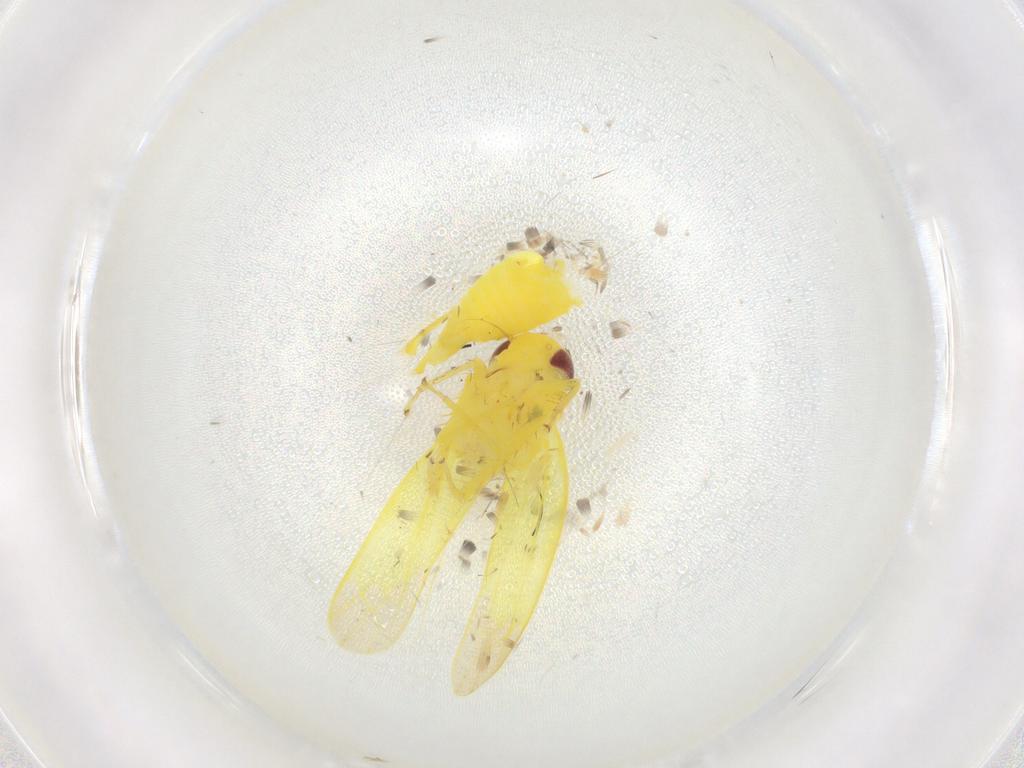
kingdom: Animalia
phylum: Arthropoda
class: Insecta
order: Hemiptera
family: Cicadellidae
